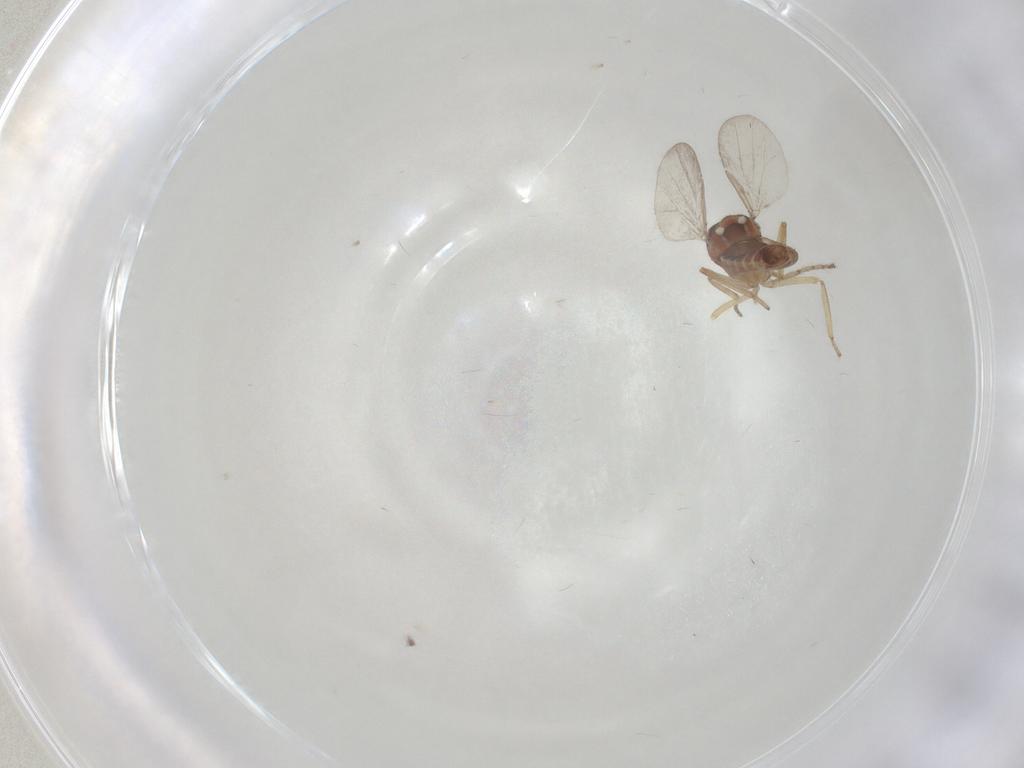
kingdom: Animalia
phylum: Arthropoda
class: Insecta
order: Diptera
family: Ceratopogonidae
